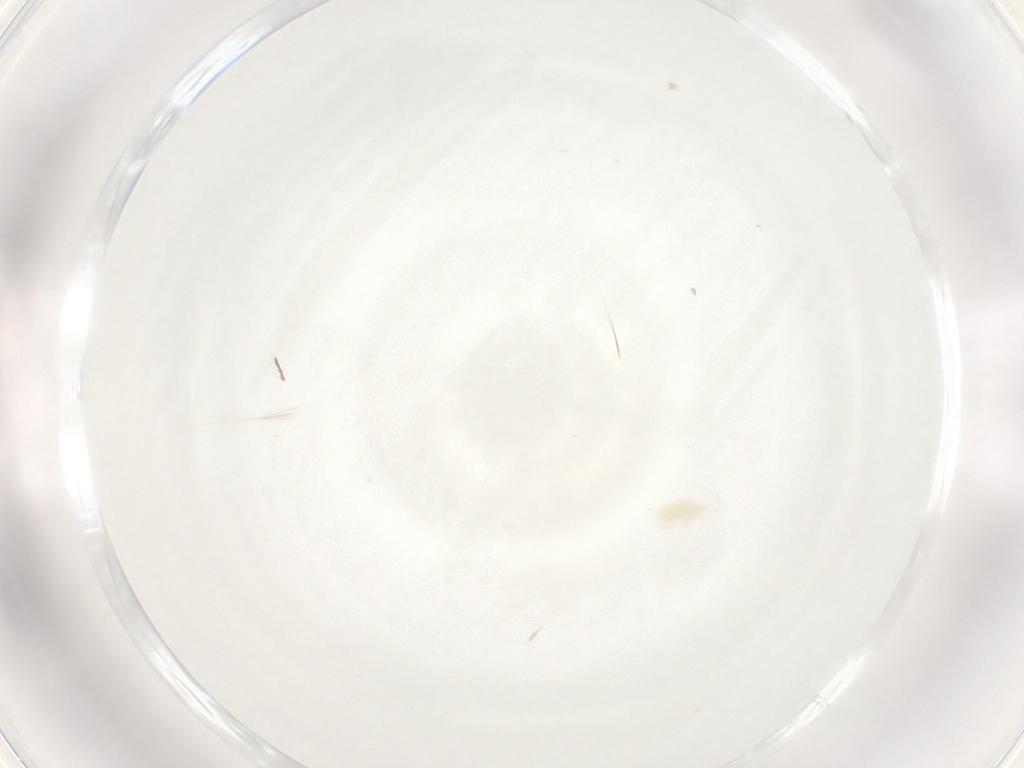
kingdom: Animalia
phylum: Arthropoda
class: Arachnida
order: Trombidiformes
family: Eupodidae
